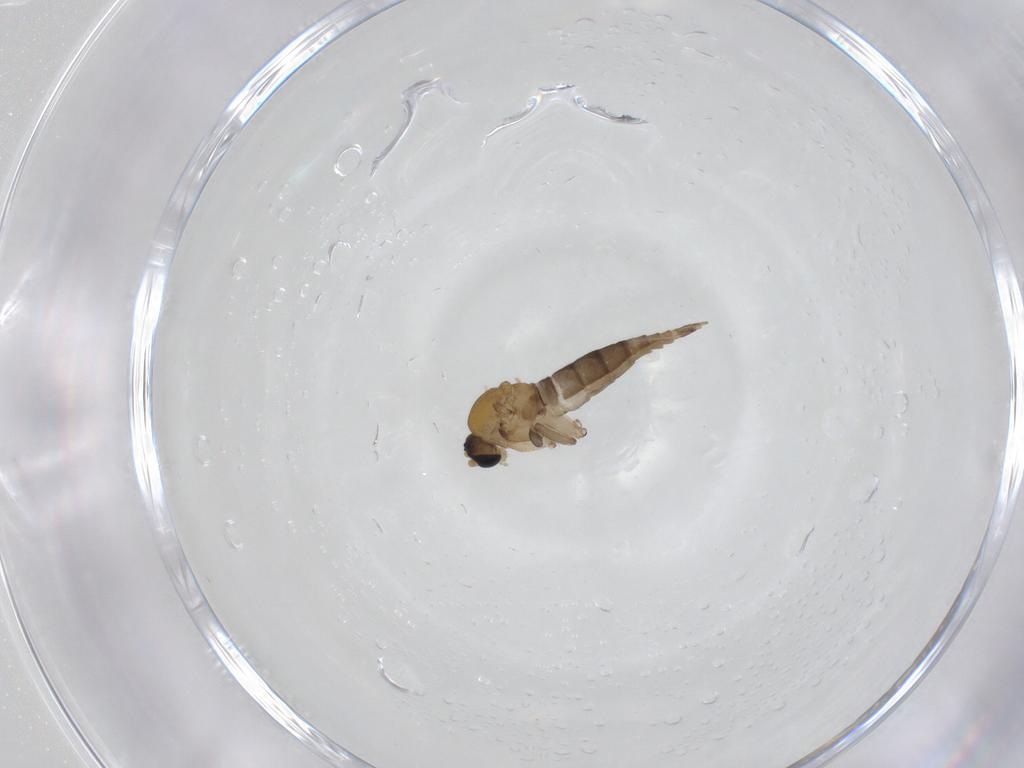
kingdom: Animalia
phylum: Arthropoda
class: Insecta
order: Diptera
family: Sciaridae
